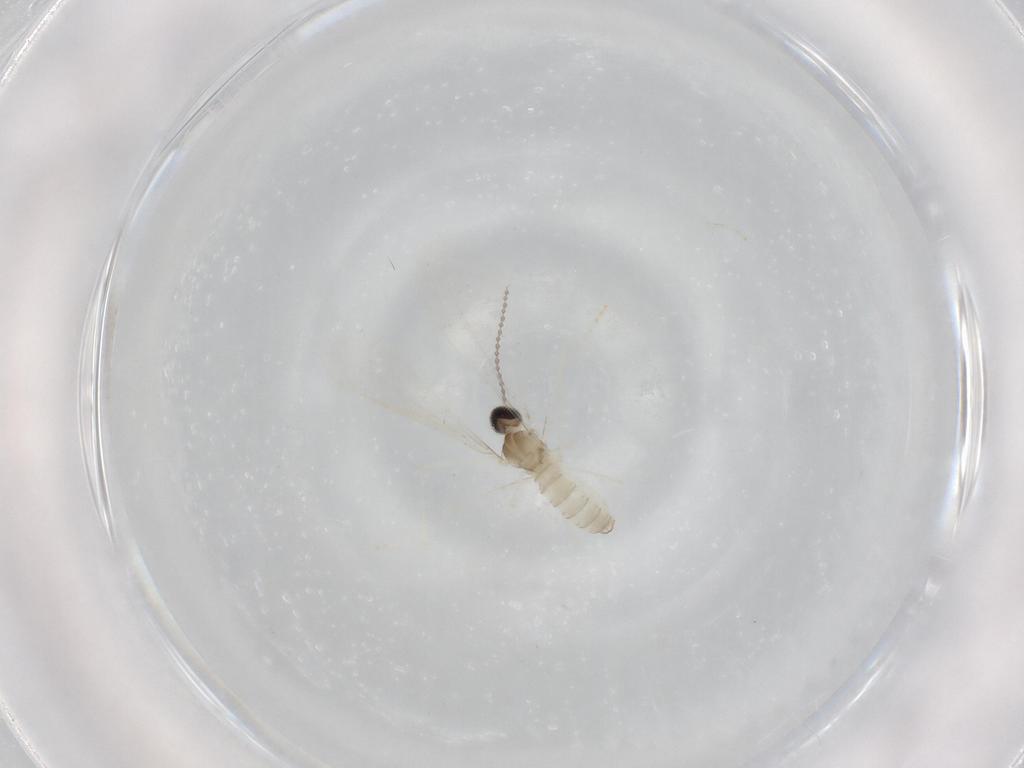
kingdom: Animalia
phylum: Arthropoda
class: Insecta
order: Diptera
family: Cecidomyiidae
